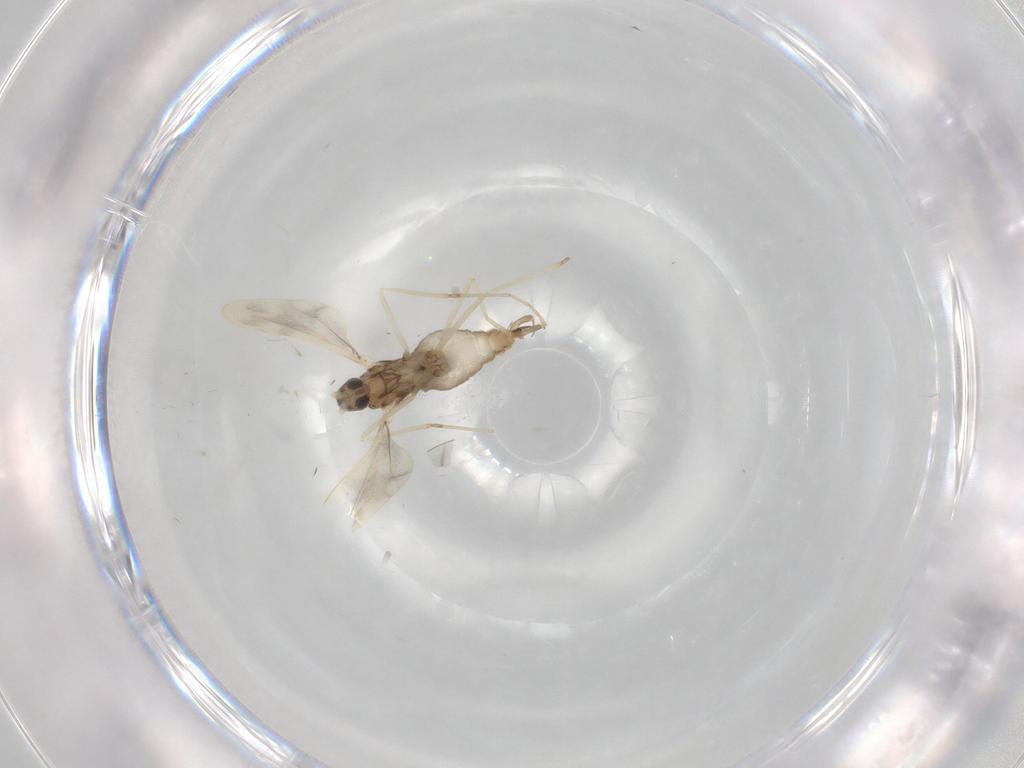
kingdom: Animalia
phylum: Arthropoda
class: Insecta
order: Diptera
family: Cecidomyiidae
